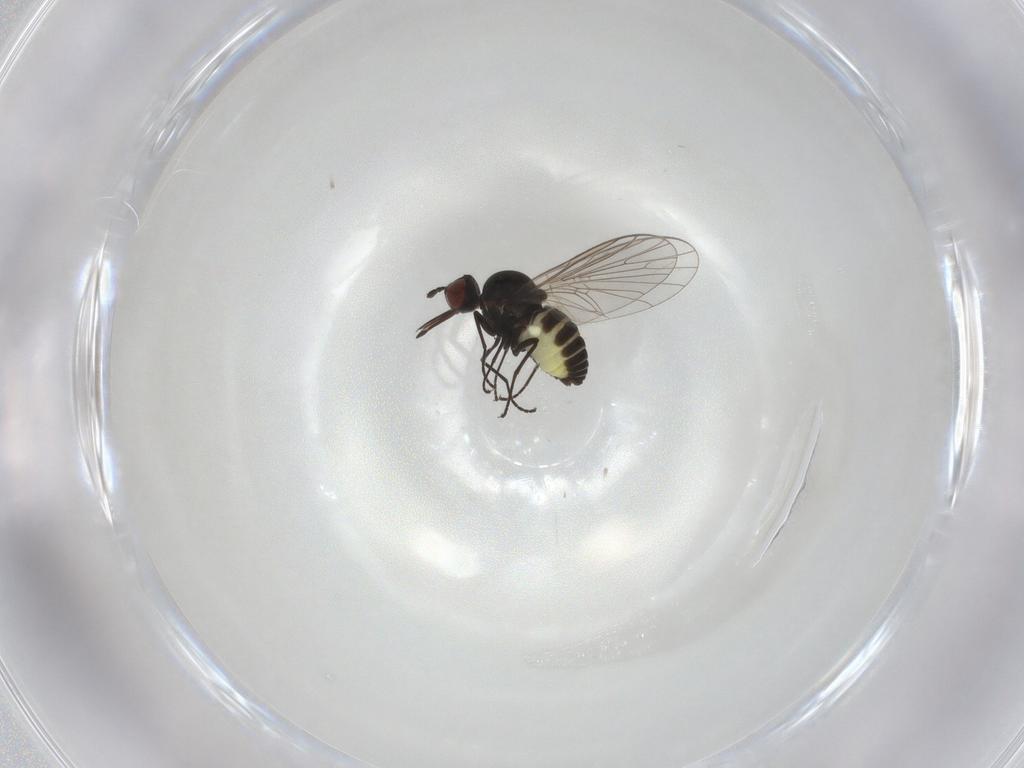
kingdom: Animalia
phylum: Arthropoda
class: Insecta
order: Diptera
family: Bombyliidae
